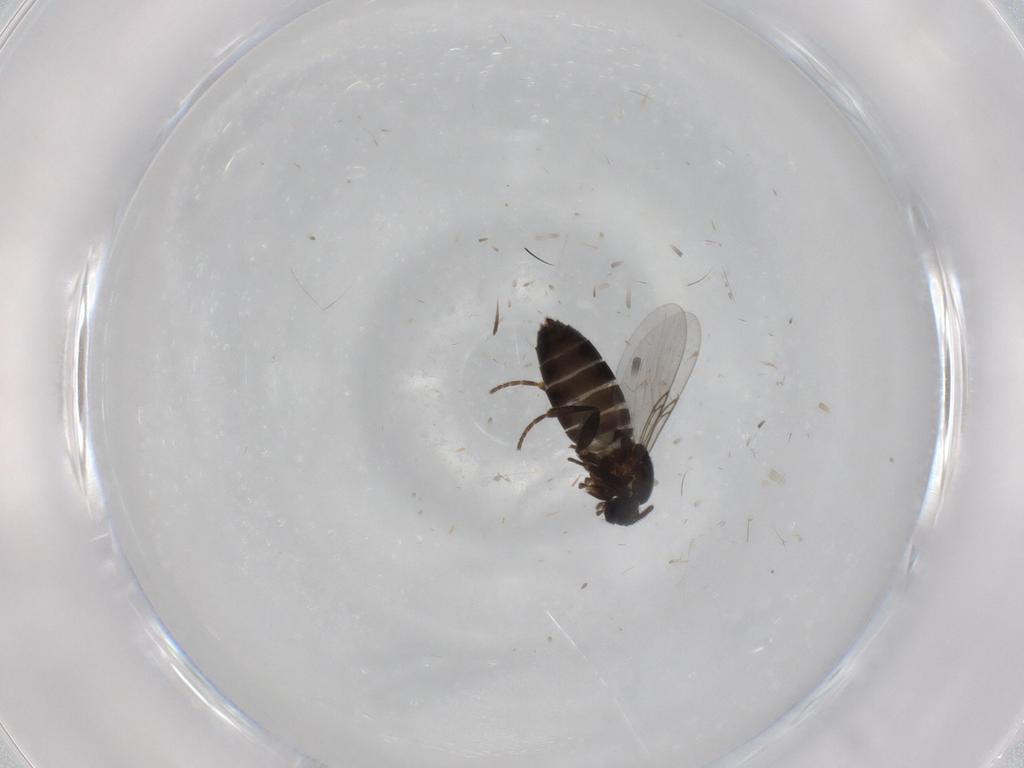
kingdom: Animalia
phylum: Arthropoda
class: Insecta
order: Diptera
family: Scatopsidae
